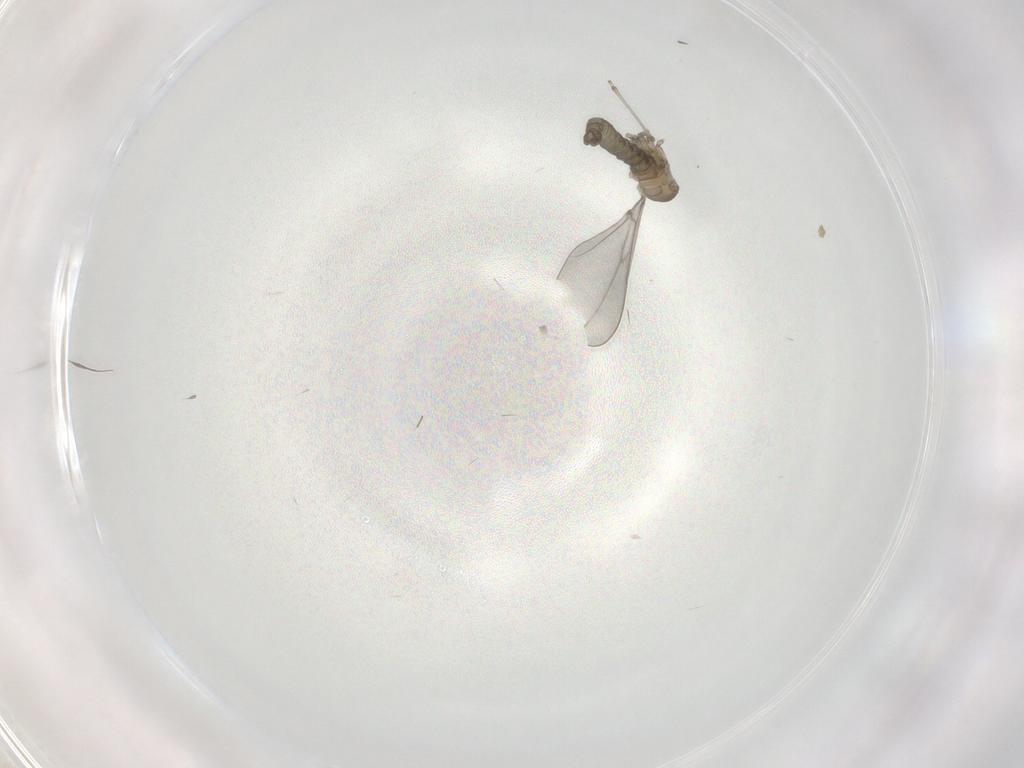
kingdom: Animalia
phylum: Arthropoda
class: Insecta
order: Diptera
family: Cecidomyiidae
